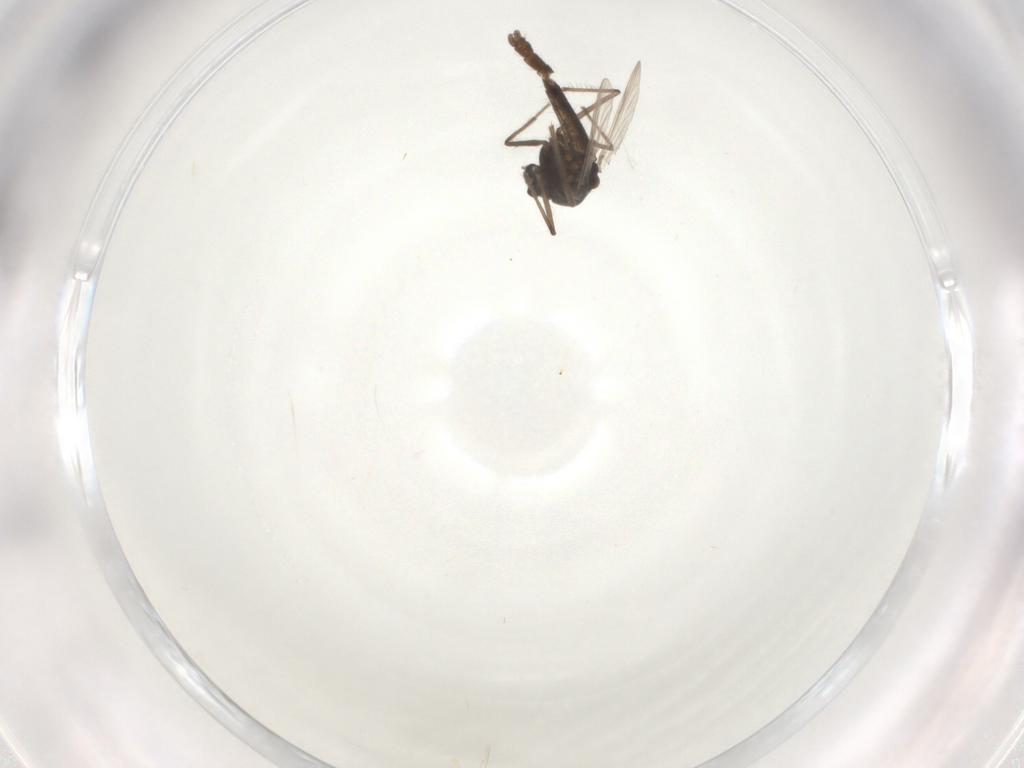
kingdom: Animalia
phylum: Arthropoda
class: Insecta
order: Diptera
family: Chironomidae
